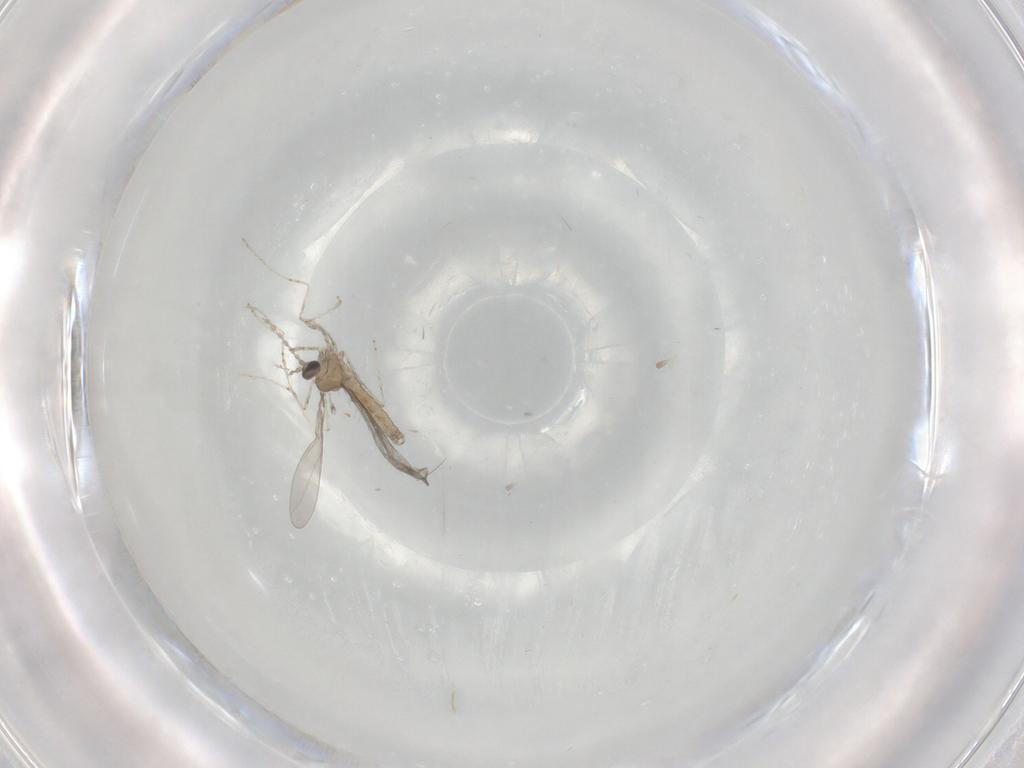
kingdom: Animalia
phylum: Arthropoda
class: Insecta
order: Diptera
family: Cecidomyiidae
